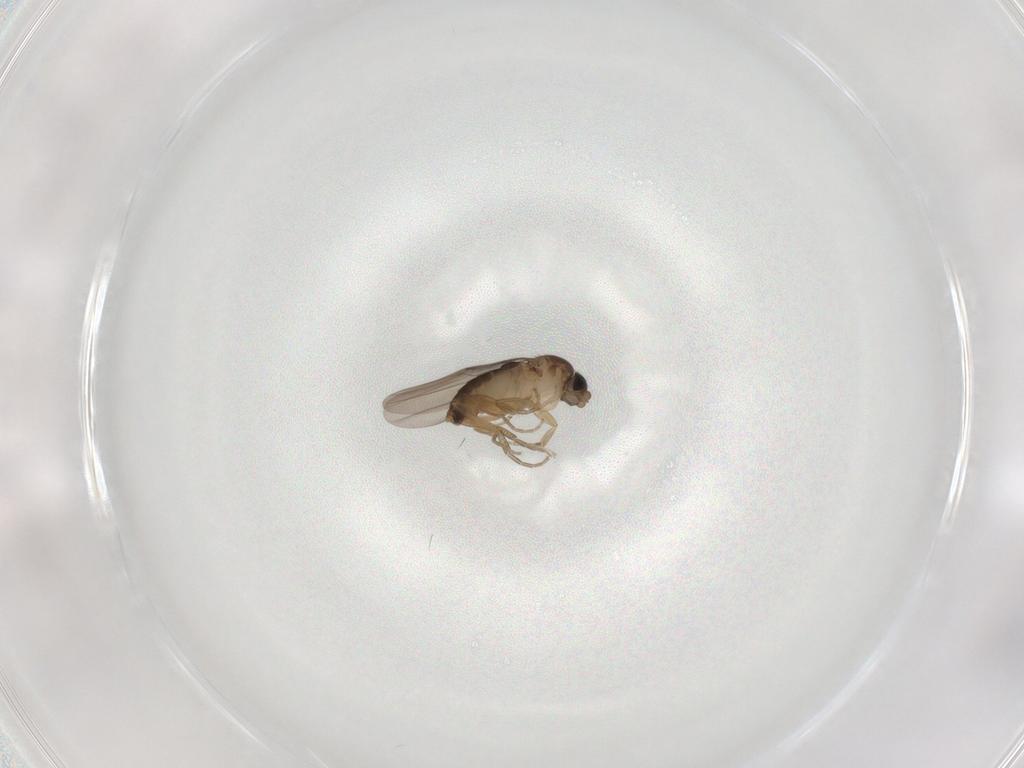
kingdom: Animalia
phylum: Arthropoda
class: Insecta
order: Diptera
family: Phoridae
